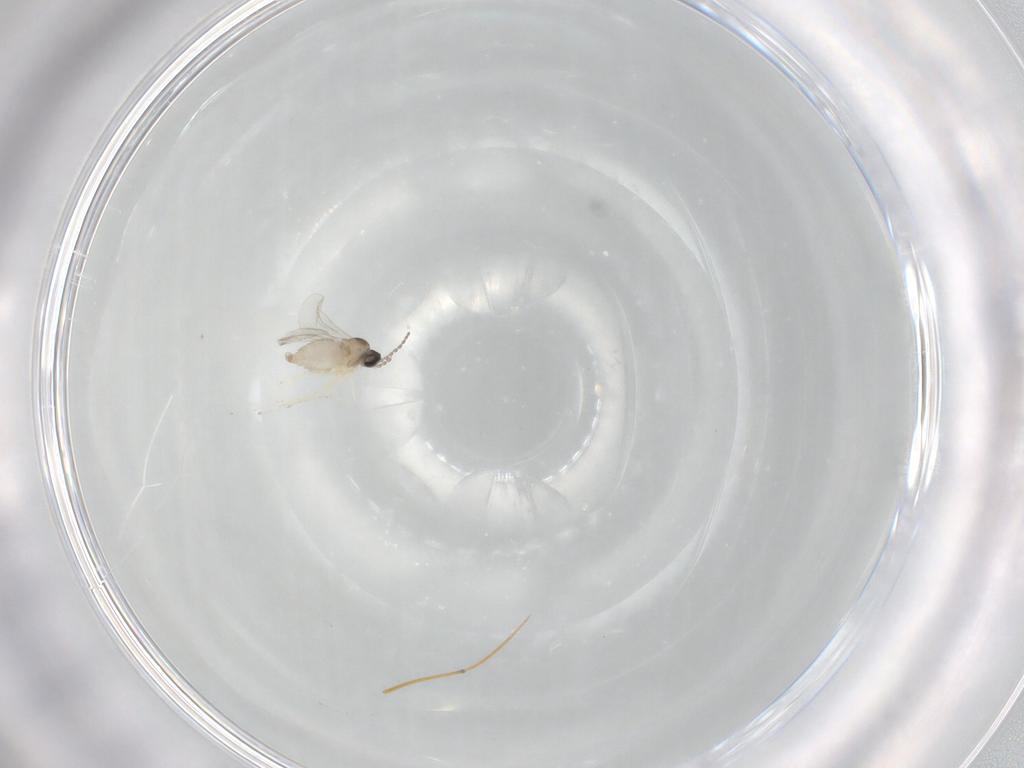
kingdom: Animalia
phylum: Arthropoda
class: Insecta
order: Diptera
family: Cecidomyiidae
